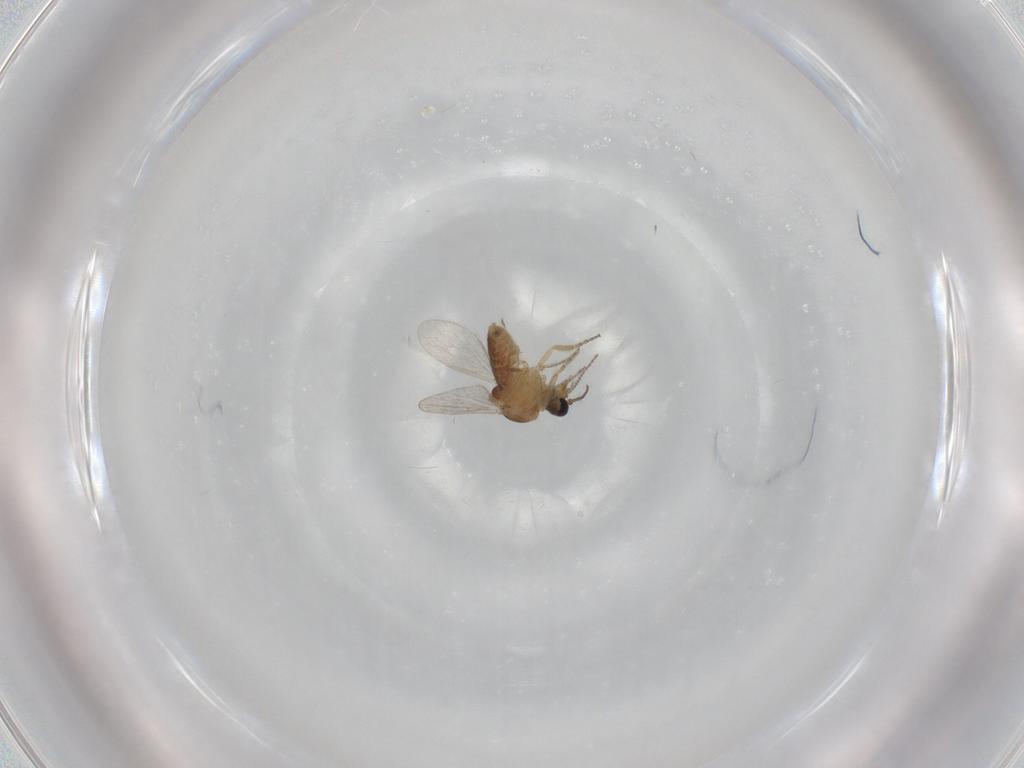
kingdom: Animalia
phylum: Arthropoda
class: Insecta
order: Diptera
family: Ceratopogonidae
